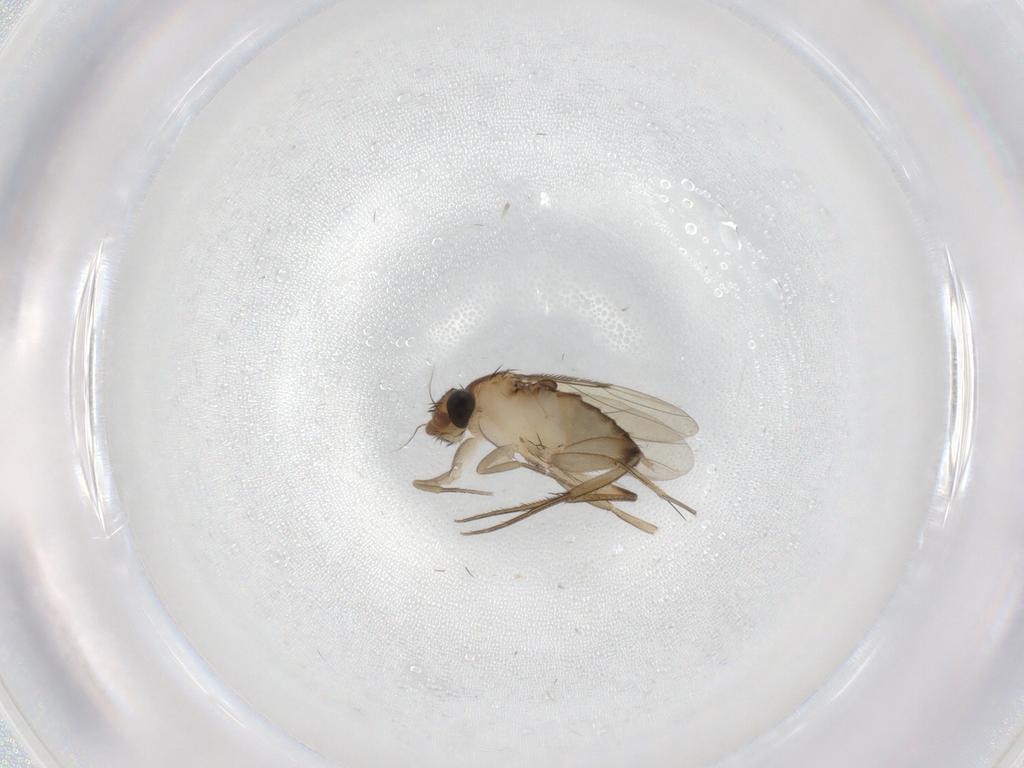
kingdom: Animalia
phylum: Arthropoda
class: Insecta
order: Diptera
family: Phoridae
